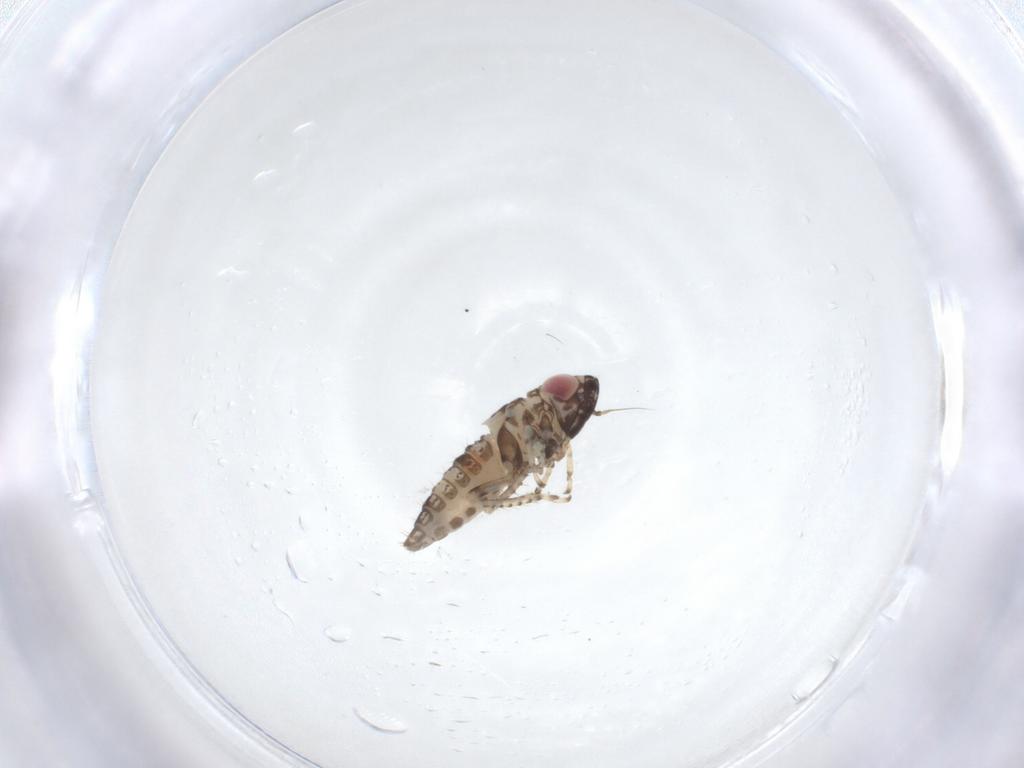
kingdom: Animalia
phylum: Arthropoda
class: Insecta
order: Hemiptera
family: Cicadellidae
